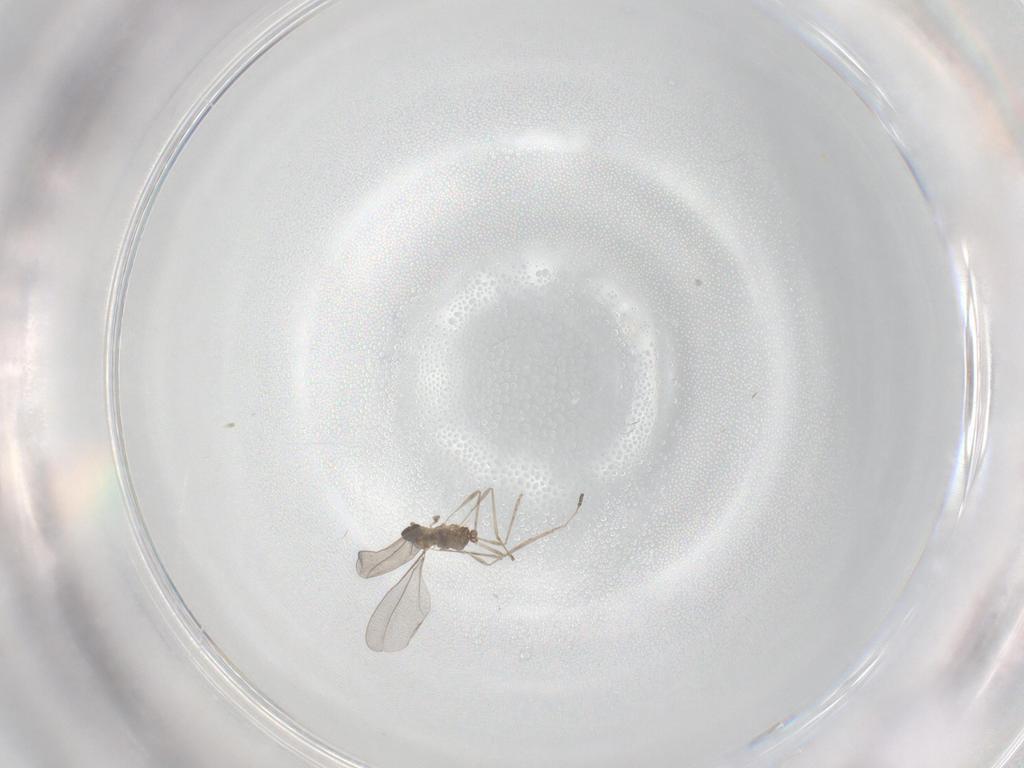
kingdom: Animalia
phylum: Arthropoda
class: Insecta
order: Diptera
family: Cecidomyiidae
